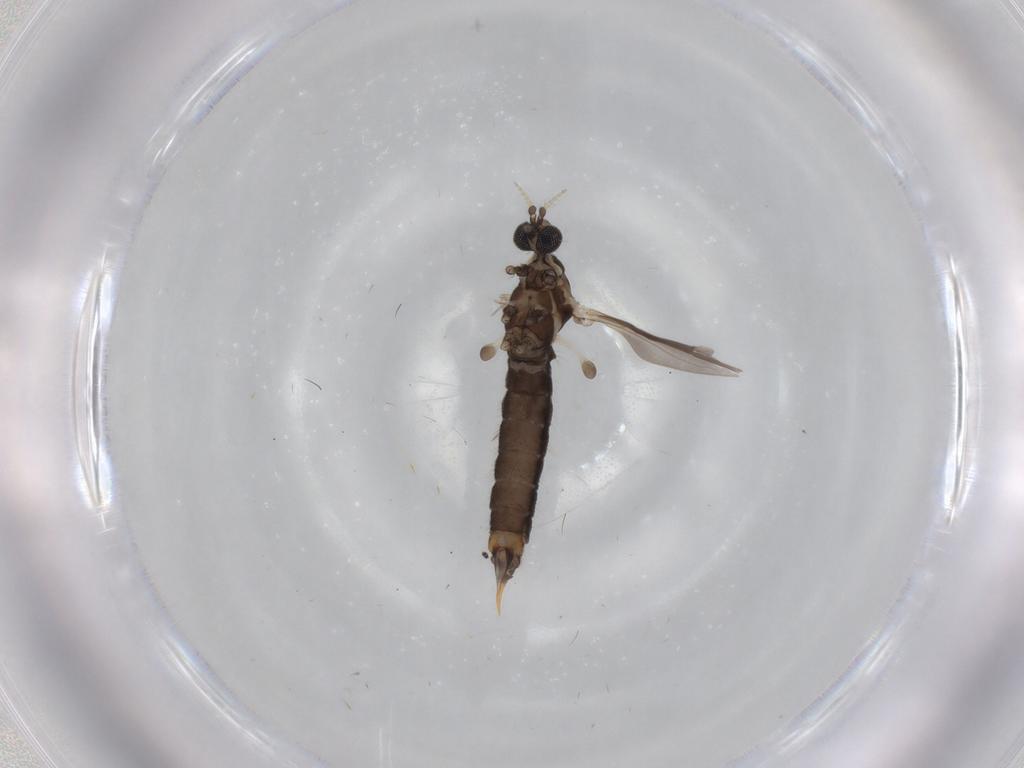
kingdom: Animalia
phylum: Arthropoda
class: Insecta
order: Diptera
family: Limoniidae
